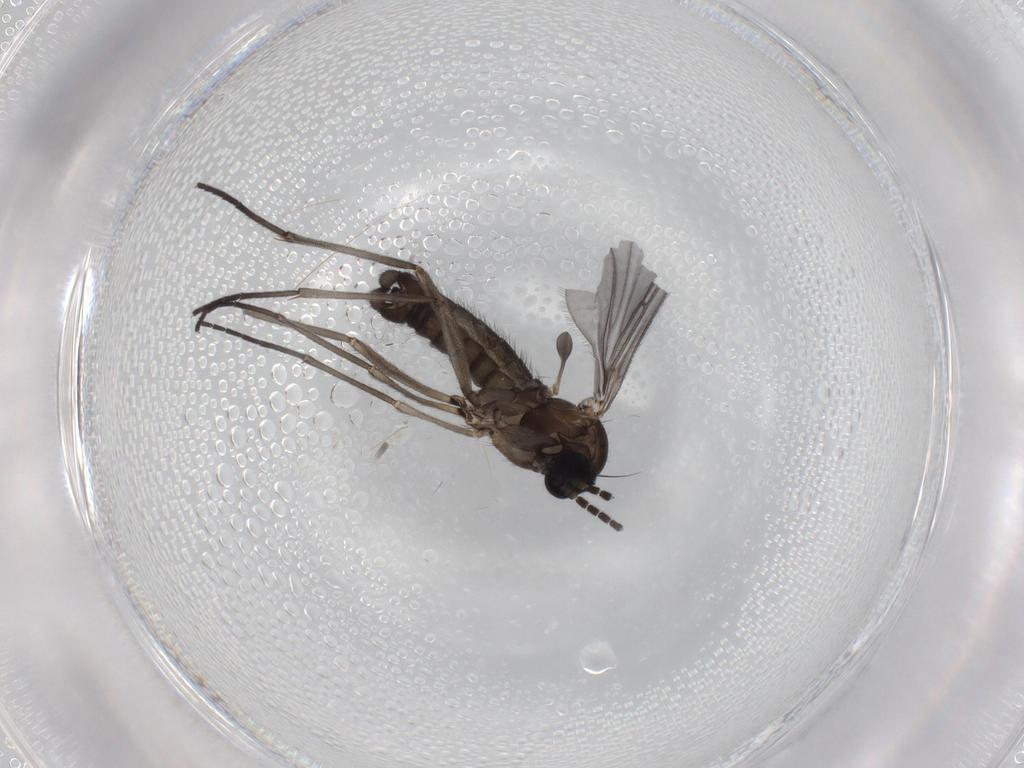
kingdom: Animalia
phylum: Arthropoda
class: Insecta
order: Diptera
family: Sciaridae
